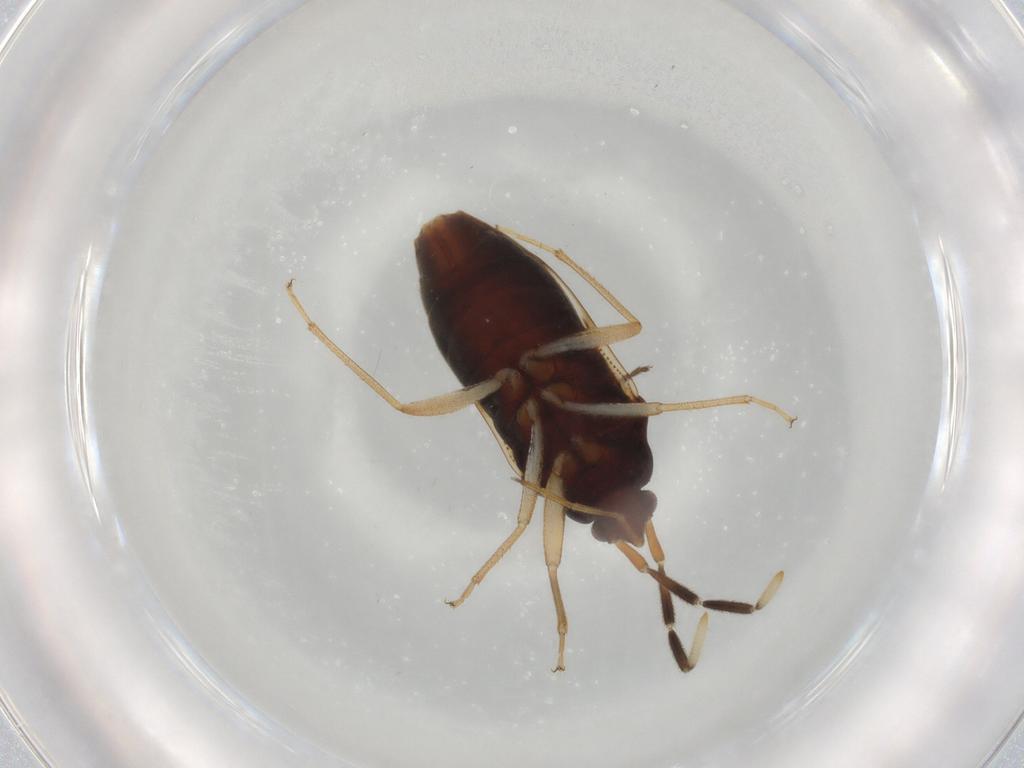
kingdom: Animalia
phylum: Arthropoda
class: Insecta
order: Hemiptera
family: Rhyparochromidae
